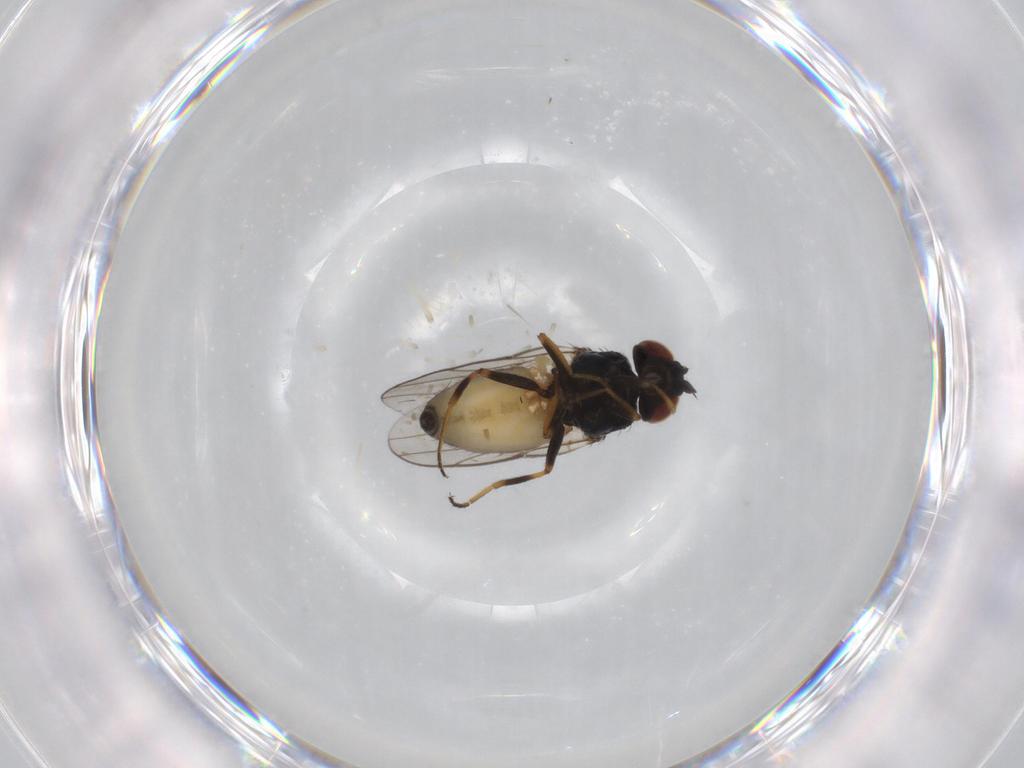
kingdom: Animalia
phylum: Arthropoda
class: Insecta
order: Diptera
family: Chloropidae
